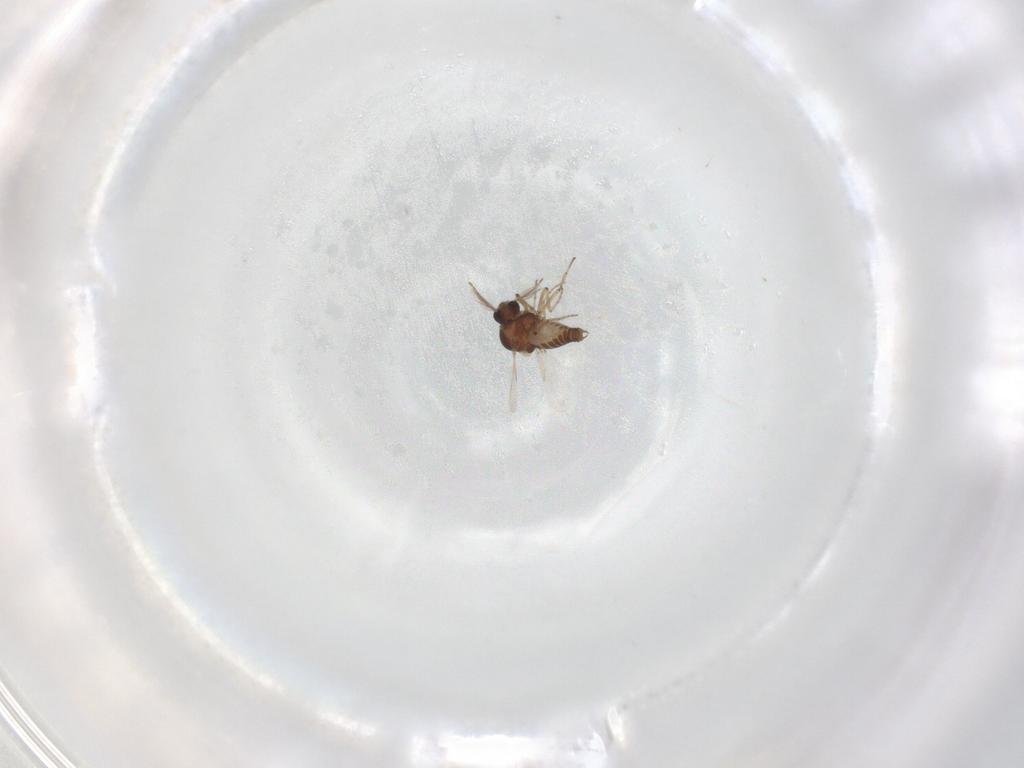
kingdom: Animalia
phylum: Arthropoda
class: Insecta
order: Diptera
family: Ceratopogonidae
